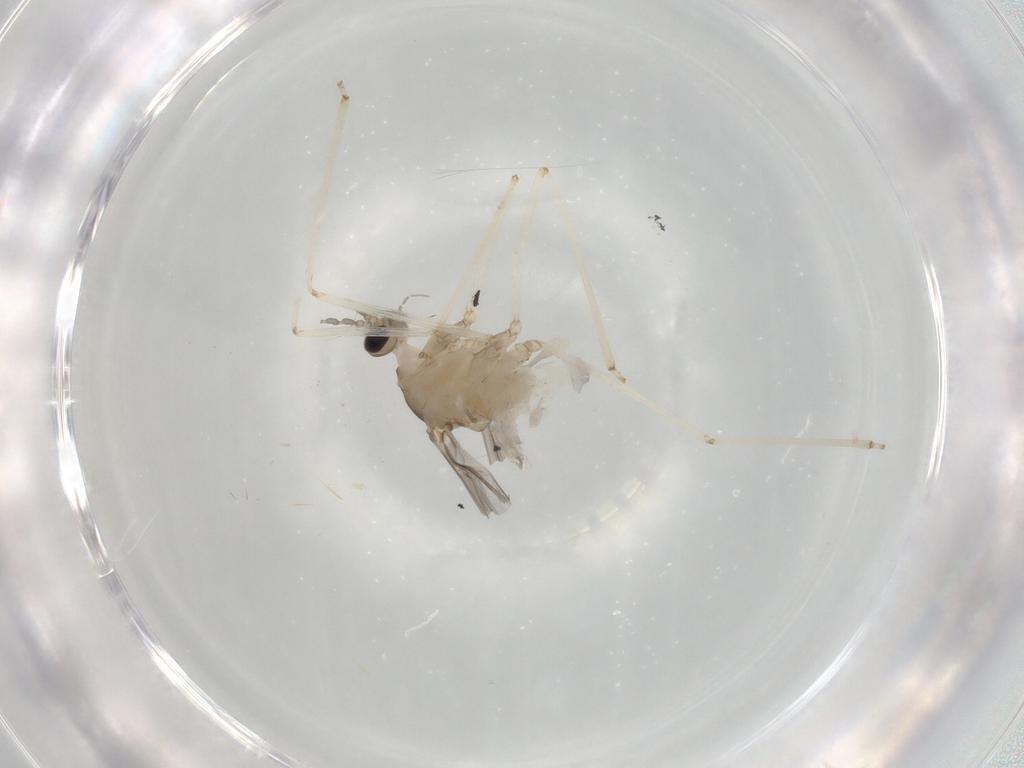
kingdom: Animalia
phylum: Arthropoda
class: Insecta
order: Diptera
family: Cecidomyiidae
